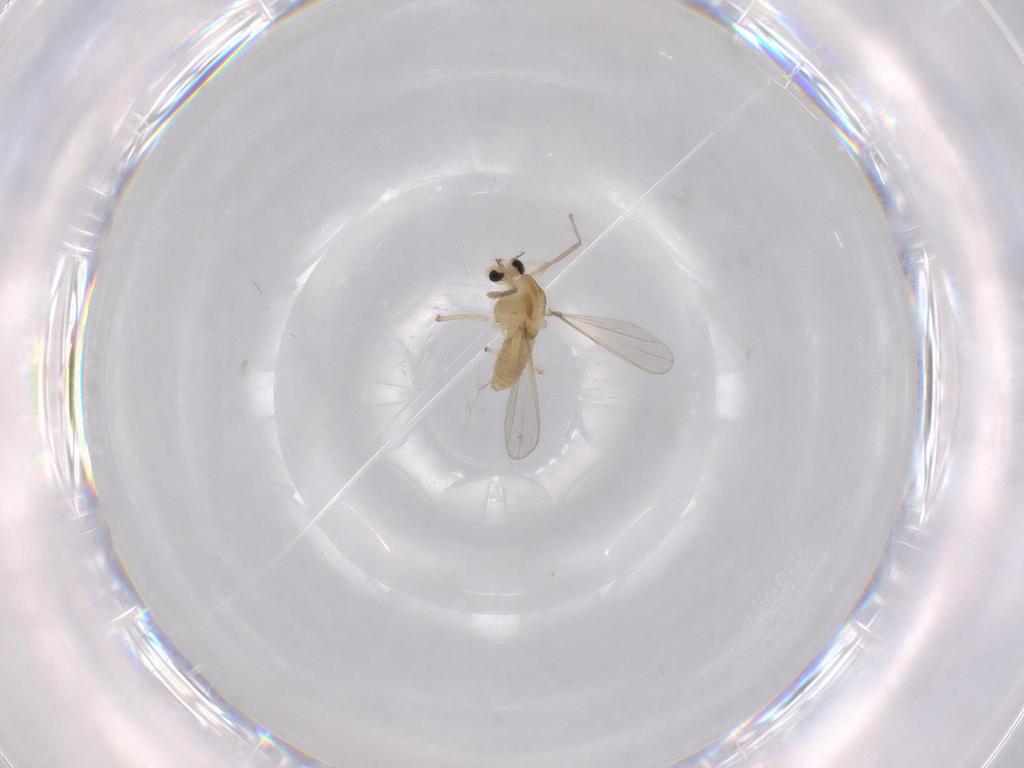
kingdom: Animalia
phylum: Arthropoda
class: Insecta
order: Diptera
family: Chironomidae
